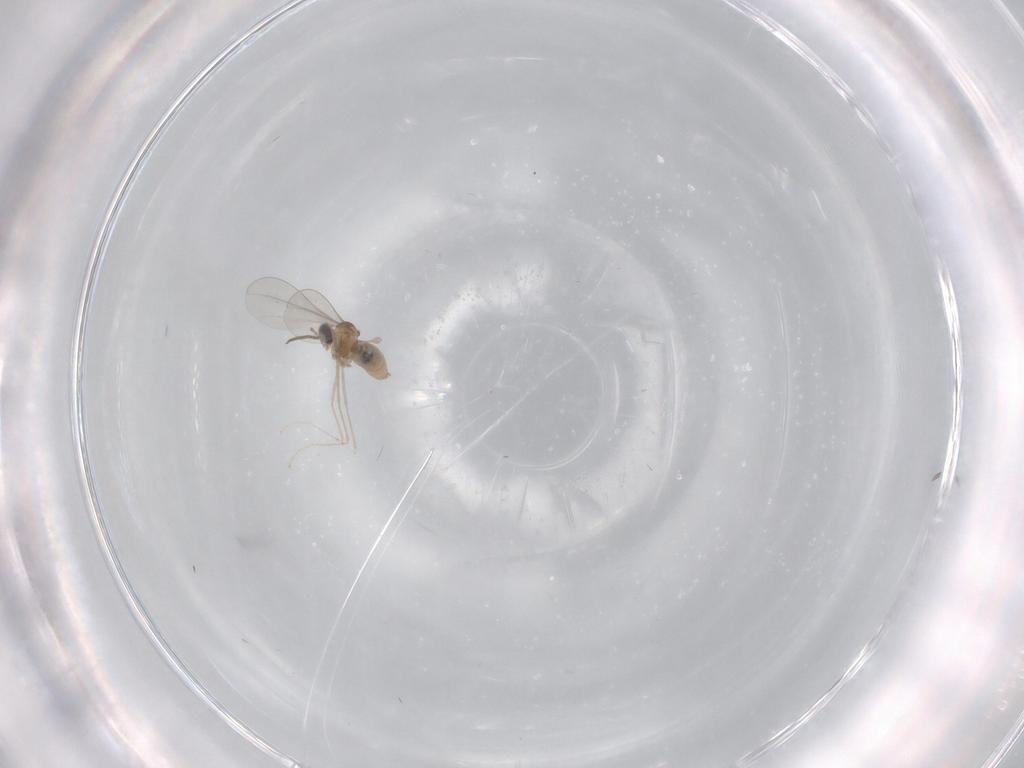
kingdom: Animalia
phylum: Arthropoda
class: Insecta
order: Diptera
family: Cecidomyiidae
